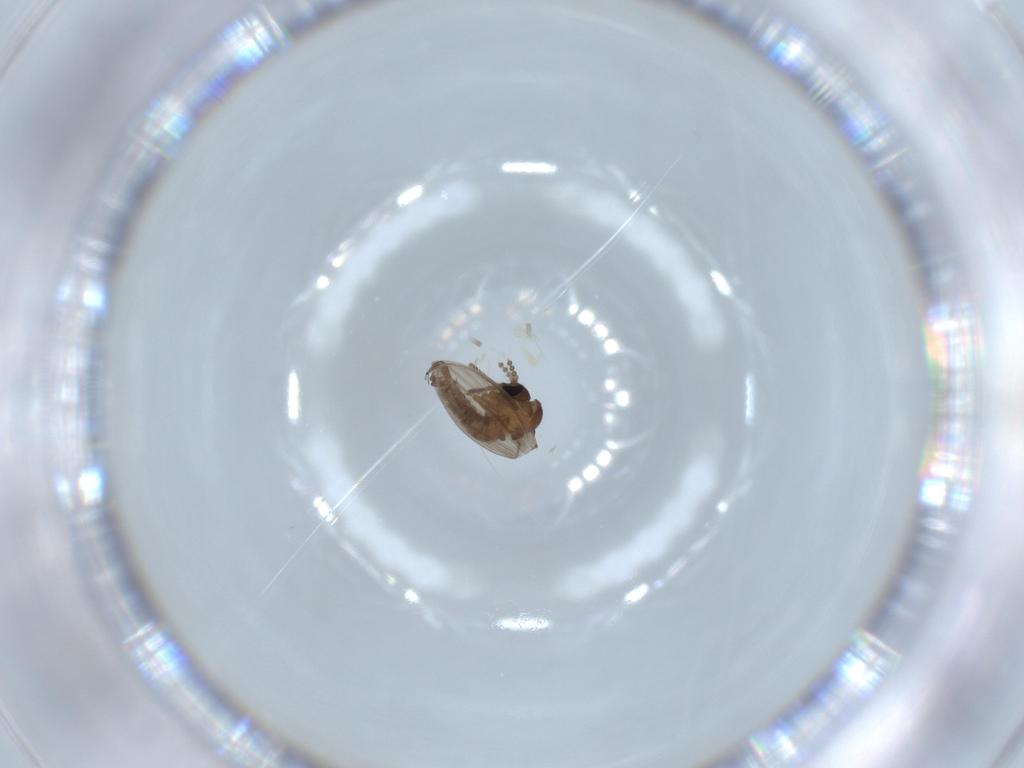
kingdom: Animalia
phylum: Arthropoda
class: Insecta
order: Diptera
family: Psychodidae
